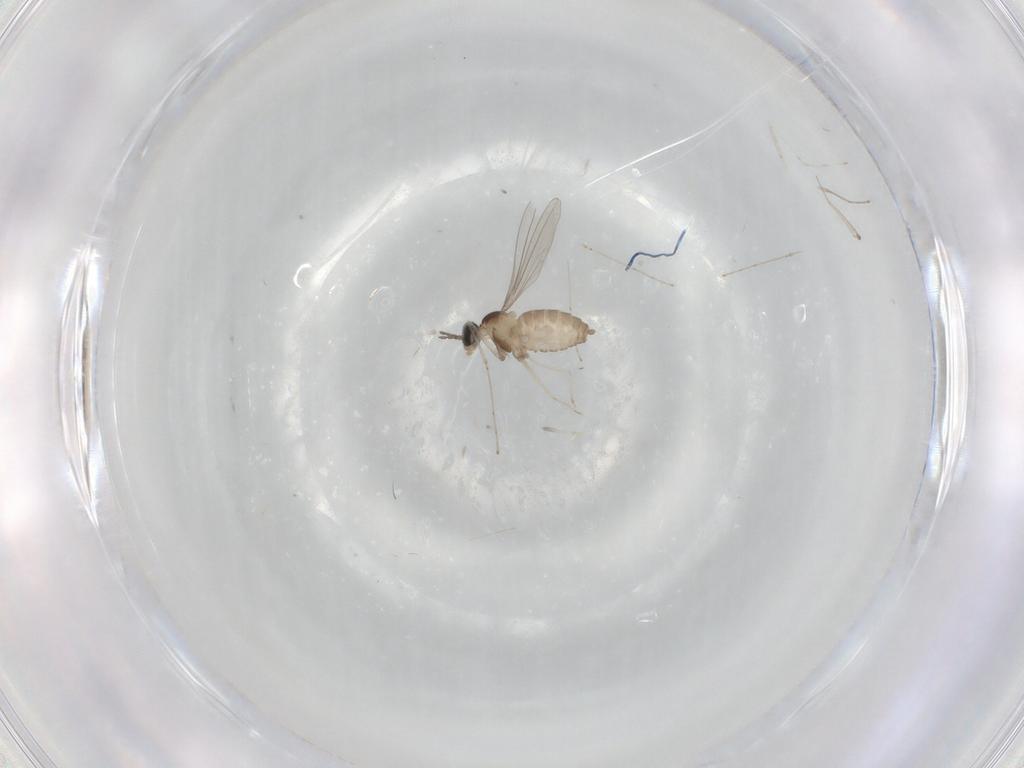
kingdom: Animalia
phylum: Arthropoda
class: Insecta
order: Diptera
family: Cecidomyiidae
